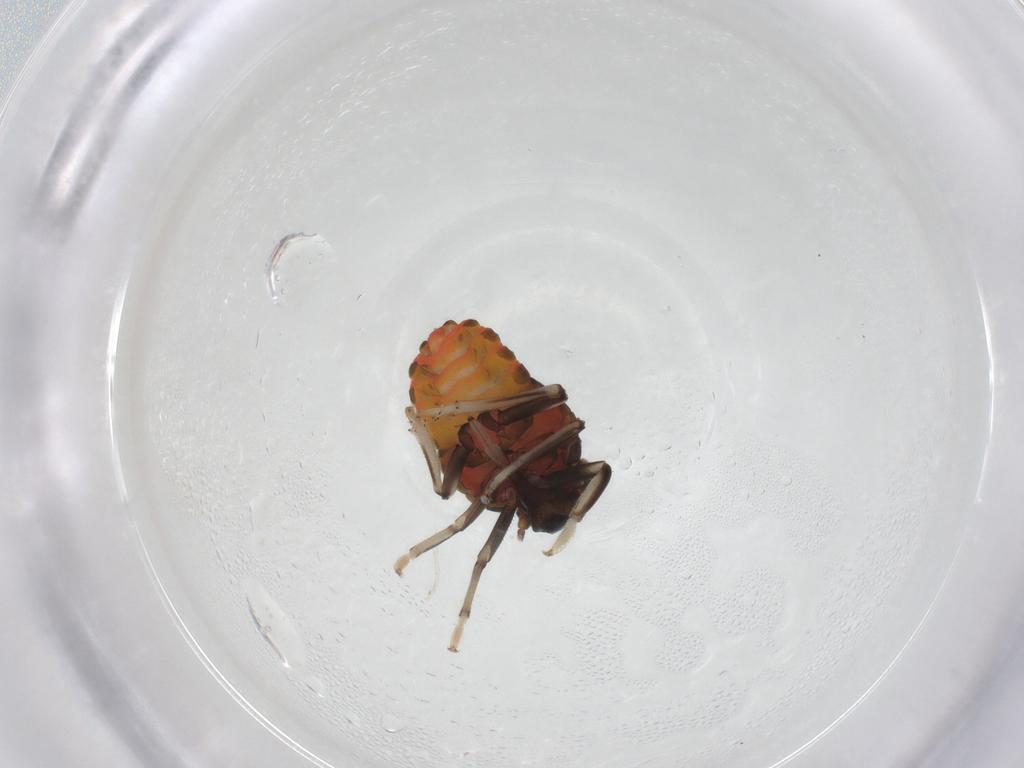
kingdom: Animalia
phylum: Arthropoda
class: Insecta
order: Hemiptera
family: Issidae
